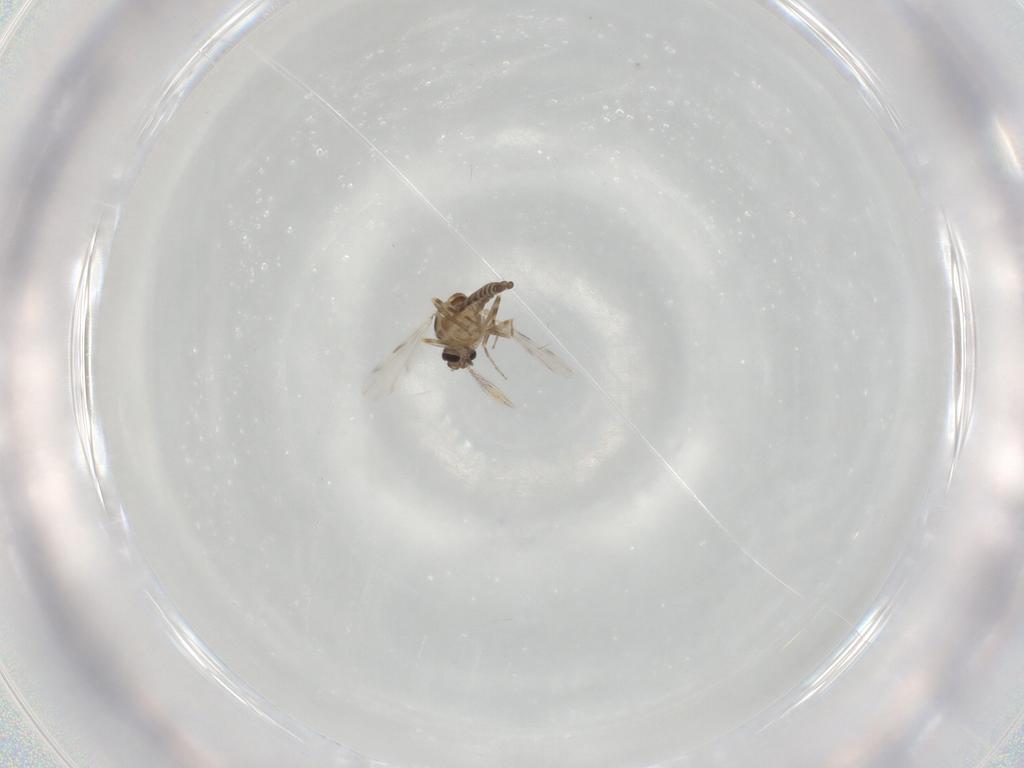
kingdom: Animalia
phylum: Arthropoda
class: Insecta
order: Diptera
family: Ceratopogonidae
